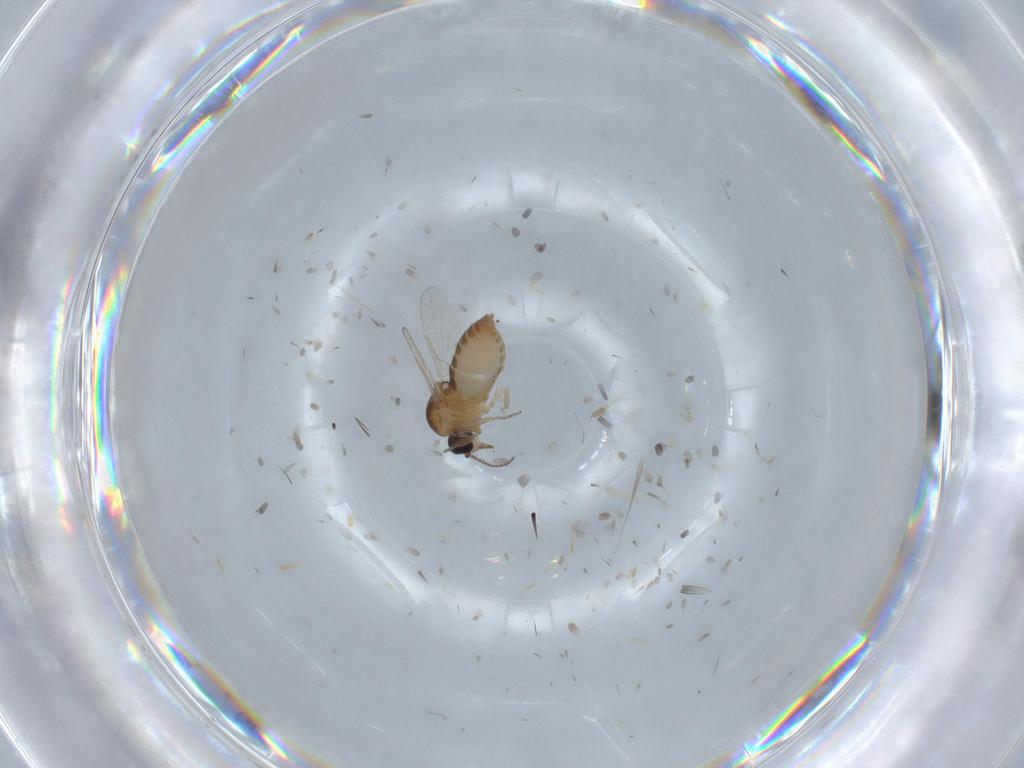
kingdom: Animalia
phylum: Arthropoda
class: Insecta
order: Diptera
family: Ceratopogonidae
